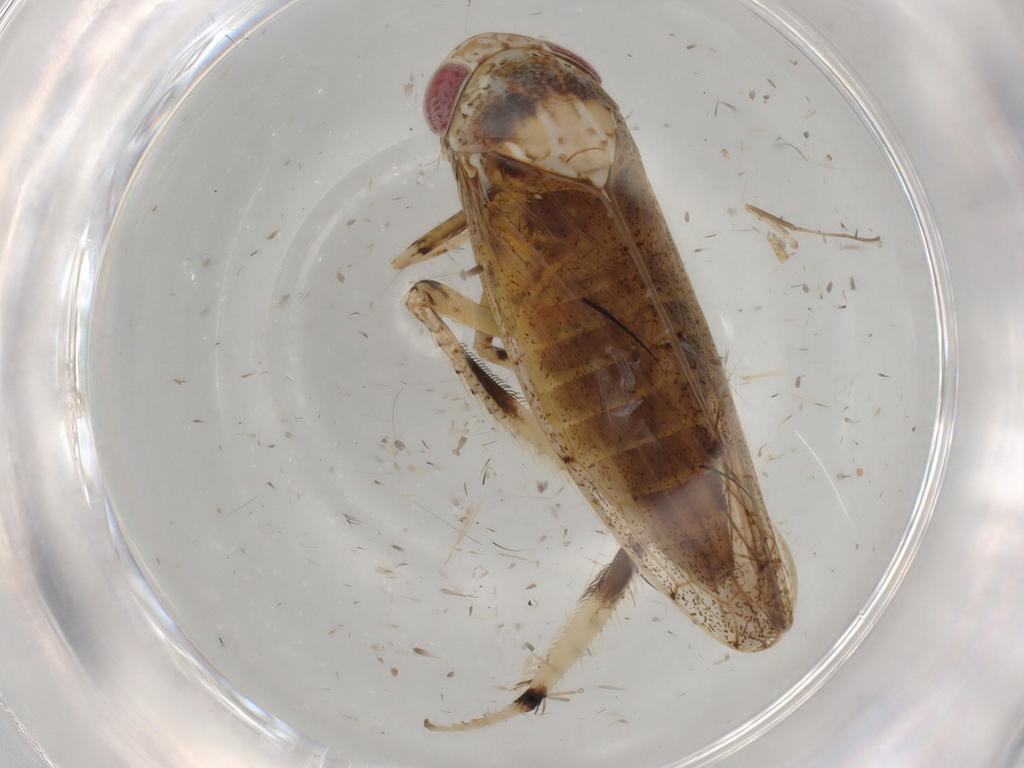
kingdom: Animalia
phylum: Arthropoda
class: Insecta
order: Hemiptera
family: Cicadellidae
